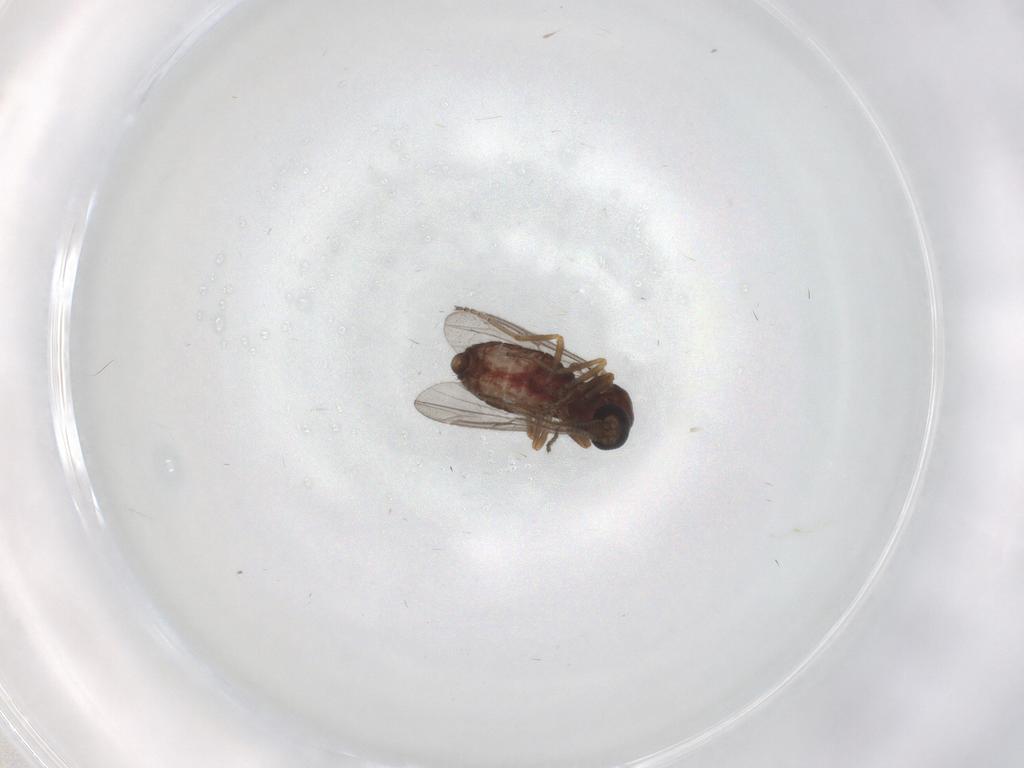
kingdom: Animalia
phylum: Arthropoda
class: Insecta
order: Diptera
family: Ceratopogonidae
